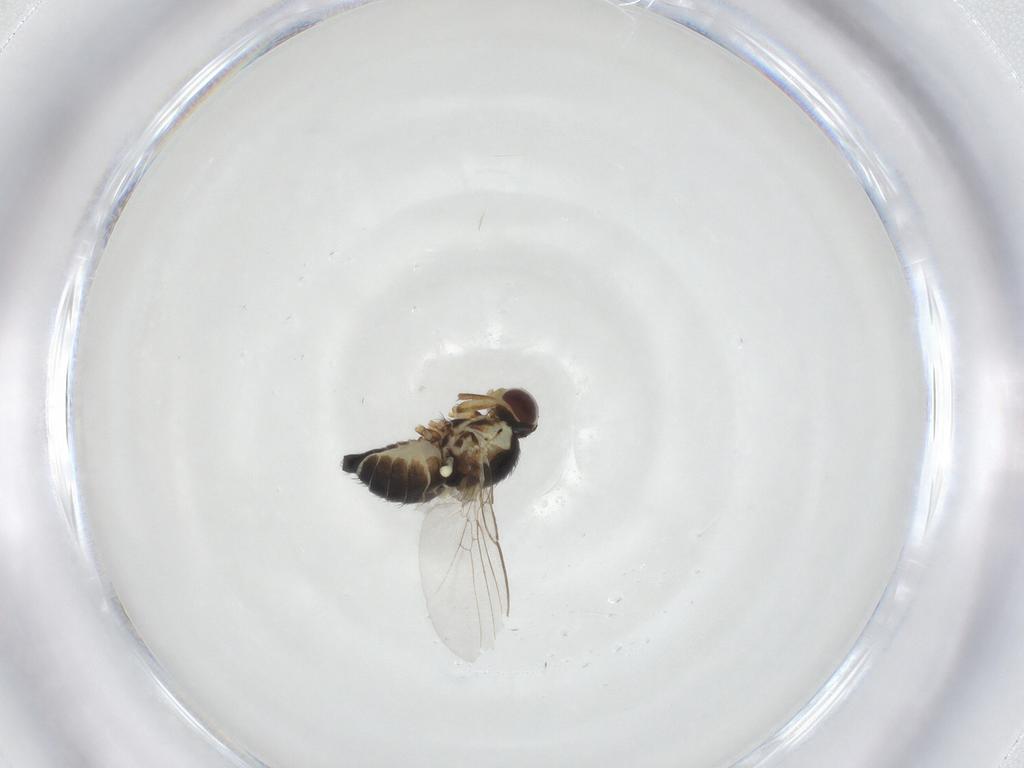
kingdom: Animalia
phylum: Arthropoda
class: Insecta
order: Diptera
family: Agromyzidae
